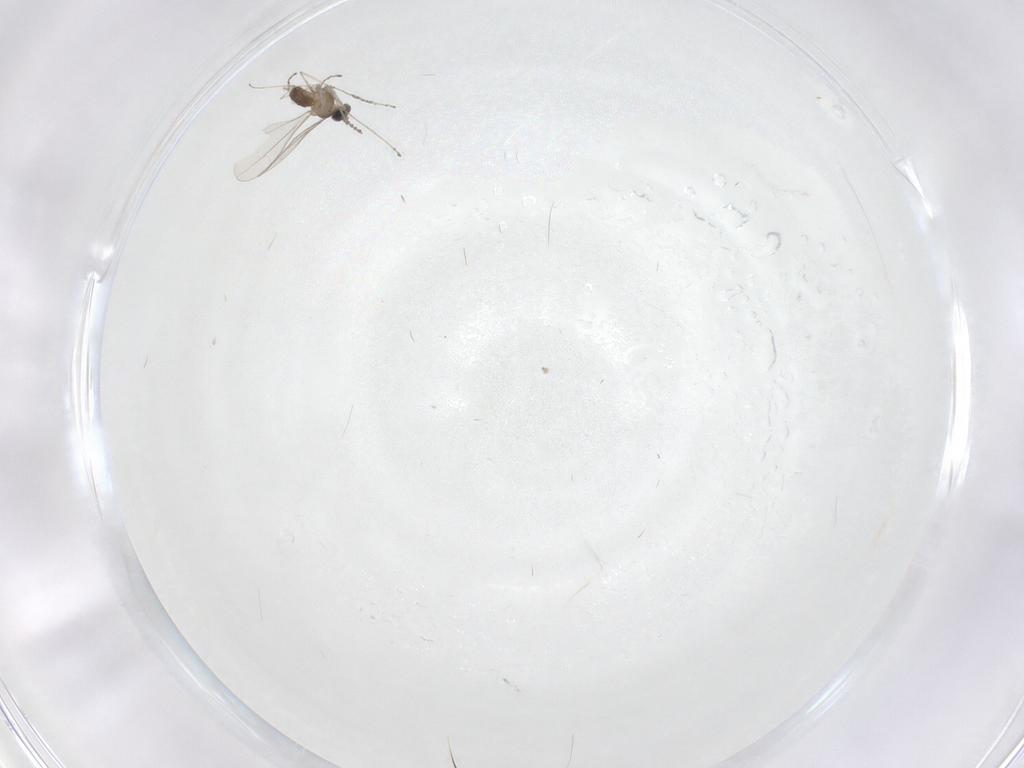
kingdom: Animalia
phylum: Arthropoda
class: Insecta
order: Diptera
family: Cecidomyiidae
